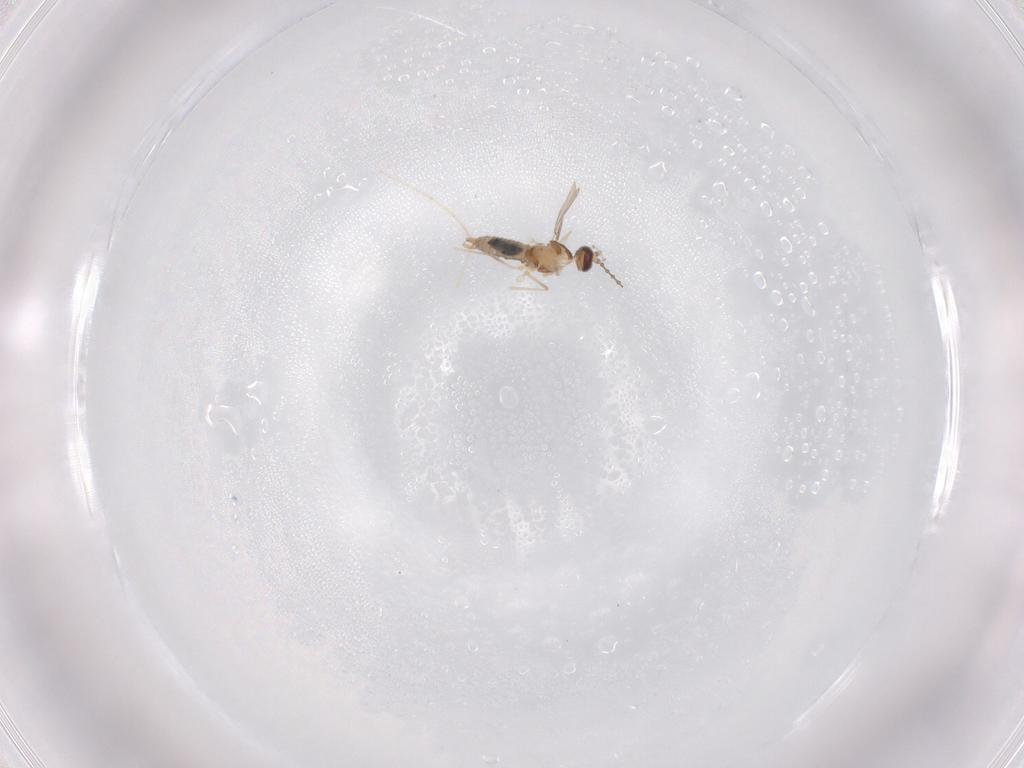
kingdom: Animalia
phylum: Arthropoda
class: Insecta
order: Diptera
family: Cecidomyiidae
